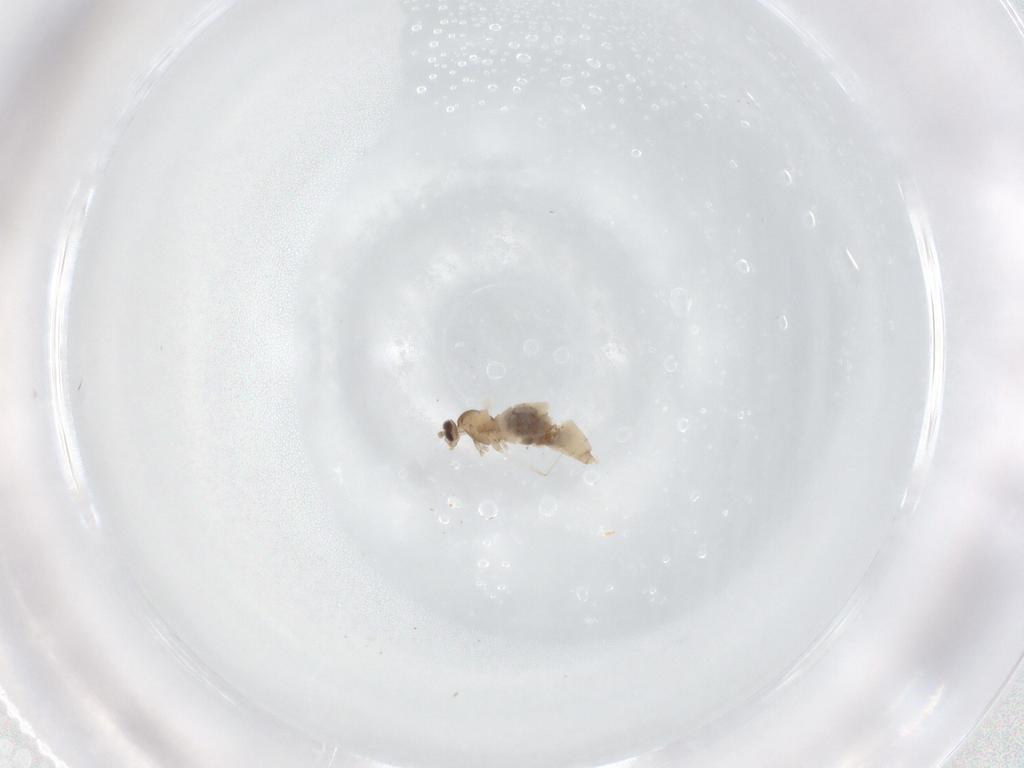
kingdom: Animalia
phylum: Arthropoda
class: Insecta
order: Diptera
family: Cecidomyiidae
